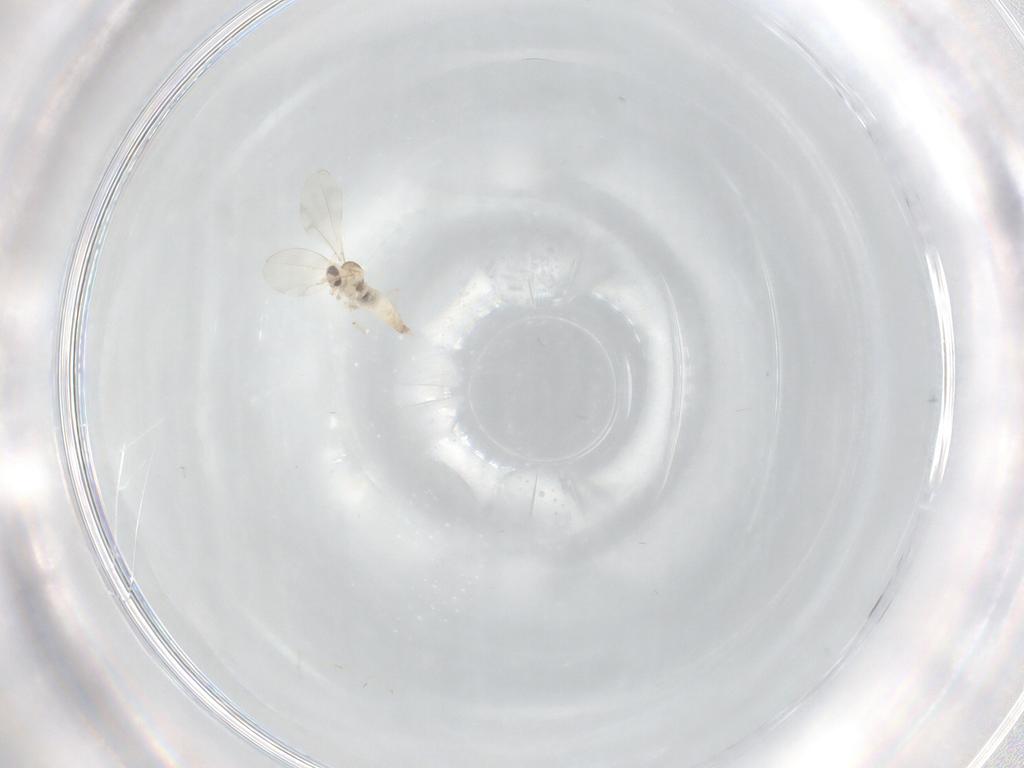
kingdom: Animalia
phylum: Arthropoda
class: Insecta
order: Diptera
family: Cecidomyiidae
